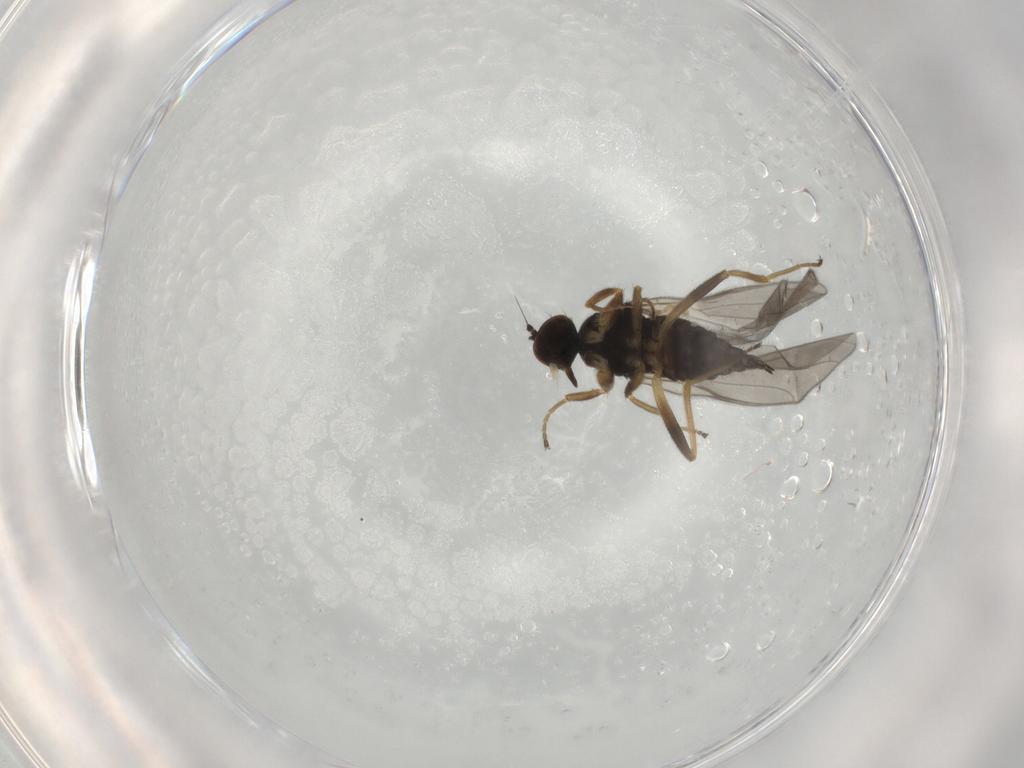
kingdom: Animalia
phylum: Arthropoda
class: Insecta
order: Diptera
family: Hybotidae
